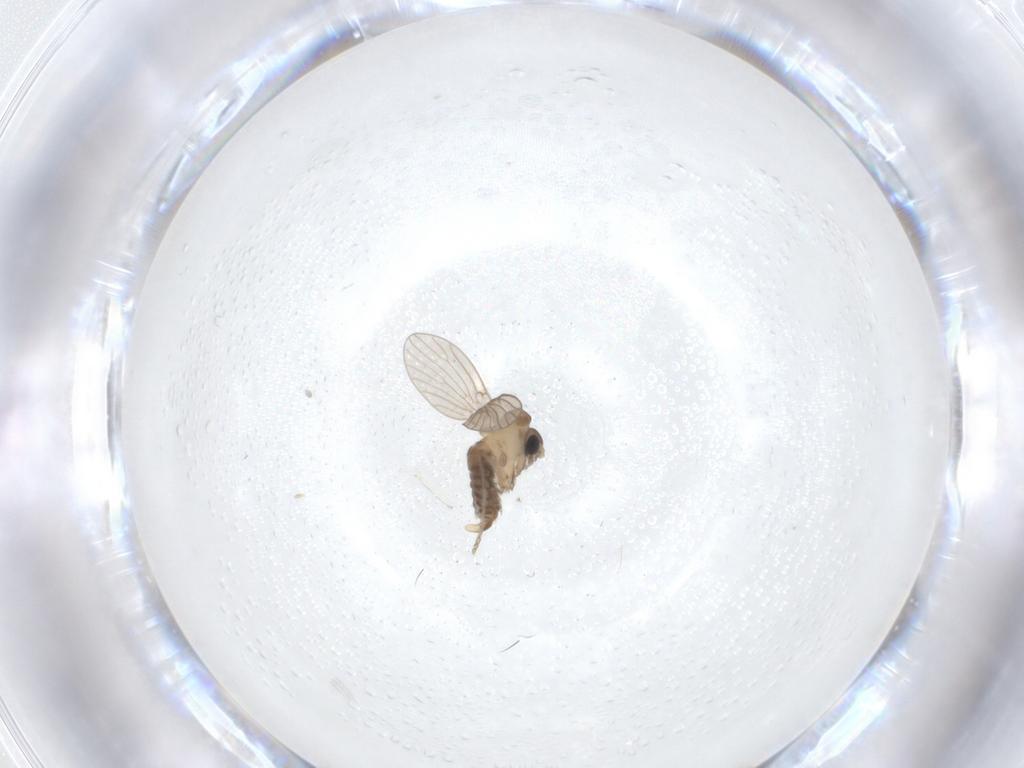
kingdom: Animalia
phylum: Arthropoda
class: Insecta
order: Diptera
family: Psychodidae
